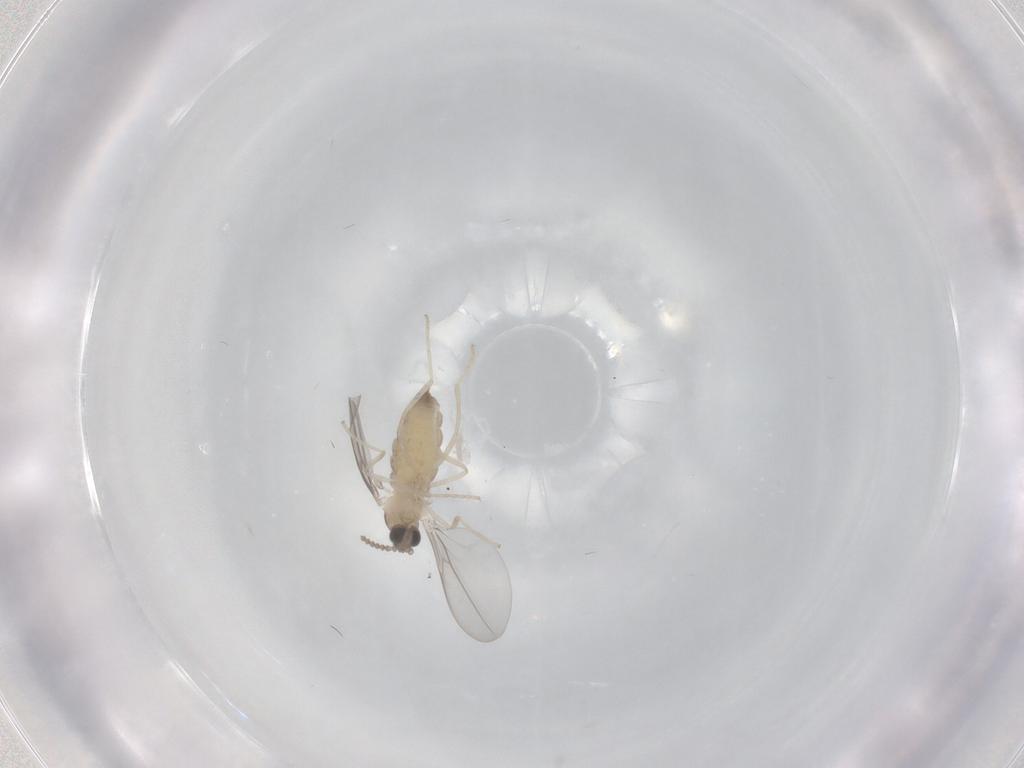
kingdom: Animalia
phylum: Arthropoda
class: Insecta
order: Diptera
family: Cecidomyiidae
